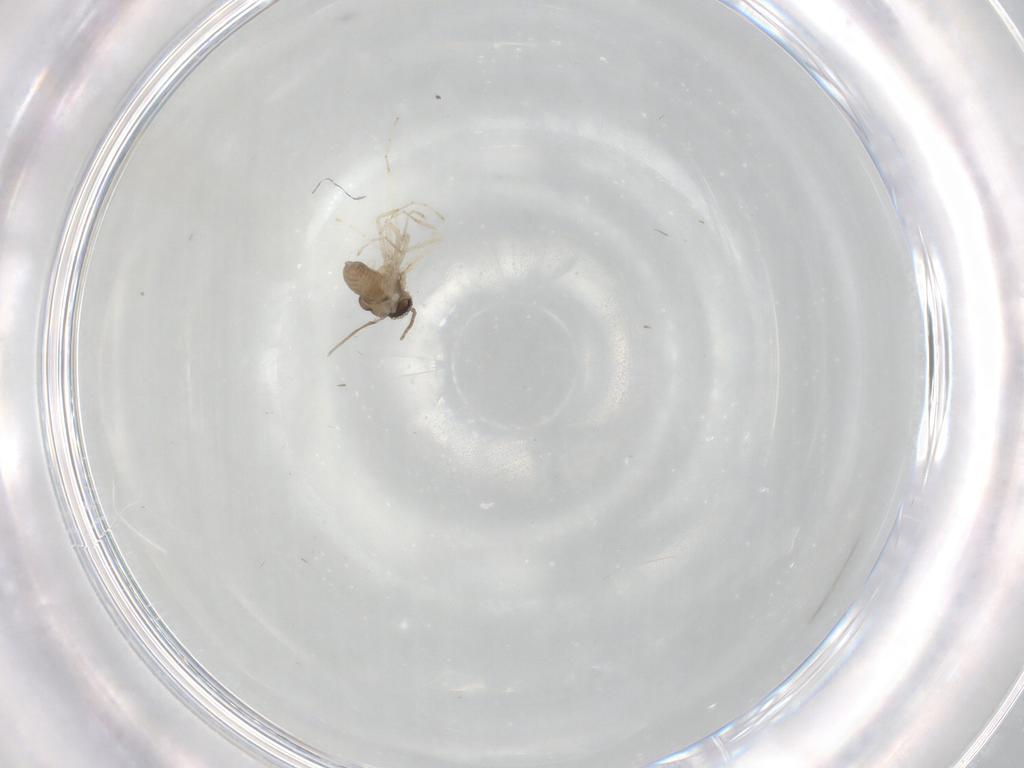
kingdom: Animalia
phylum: Arthropoda
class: Insecta
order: Diptera
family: Cecidomyiidae
